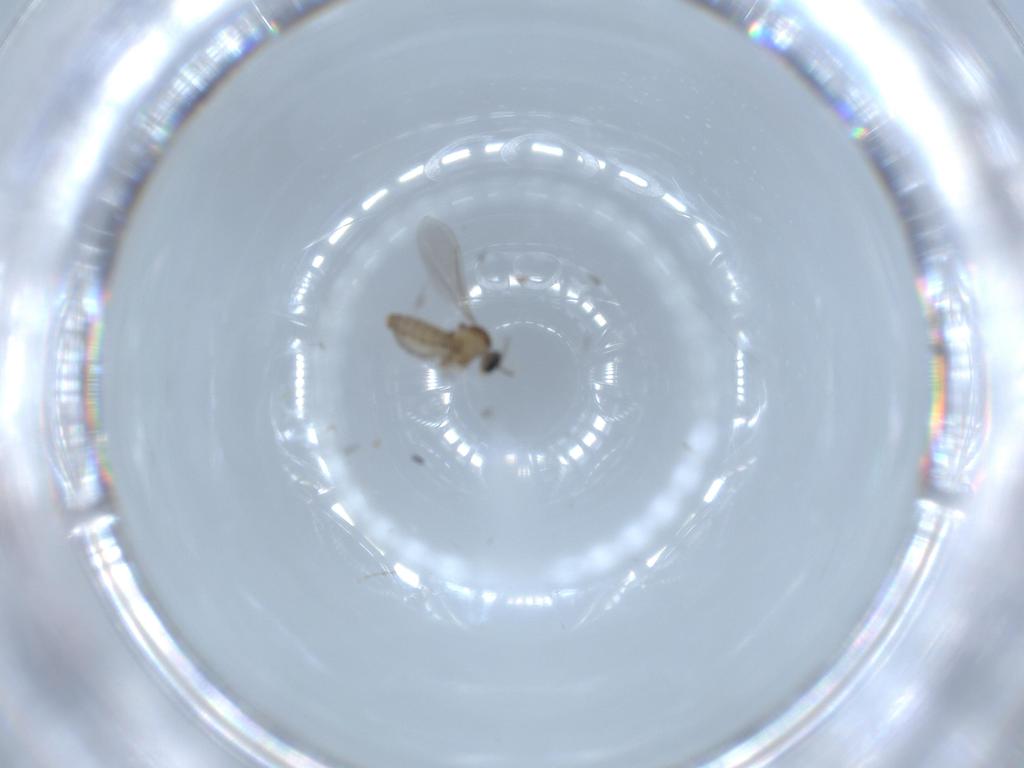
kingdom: Animalia
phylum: Arthropoda
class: Insecta
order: Diptera
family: Cecidomyiidae
